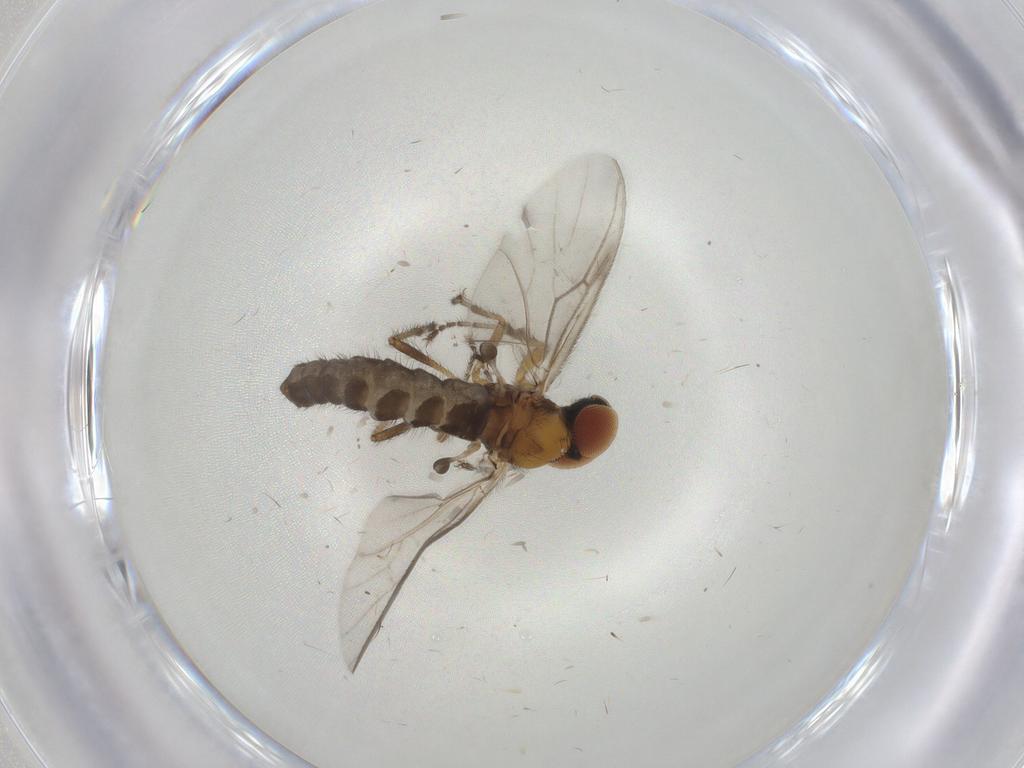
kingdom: Animalia
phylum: Arthropoda
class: Insecta
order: Diptera
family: Bibionidae
